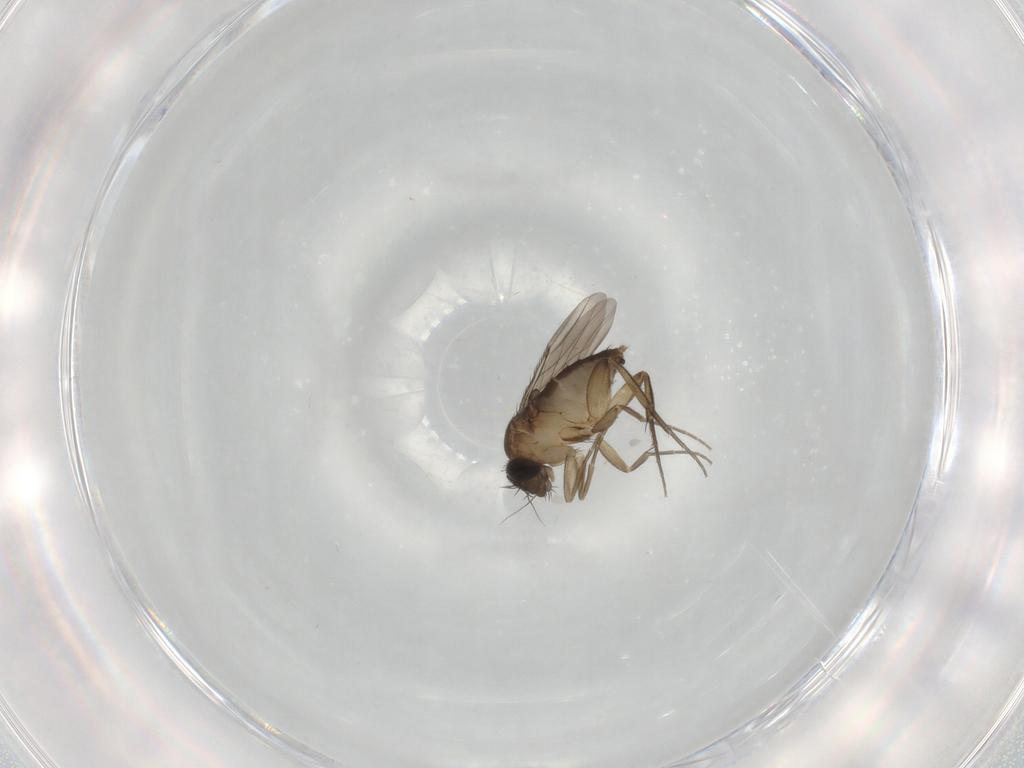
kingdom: Animalia
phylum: Arthropoda
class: Insecta
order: Diptera
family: Phoridae
